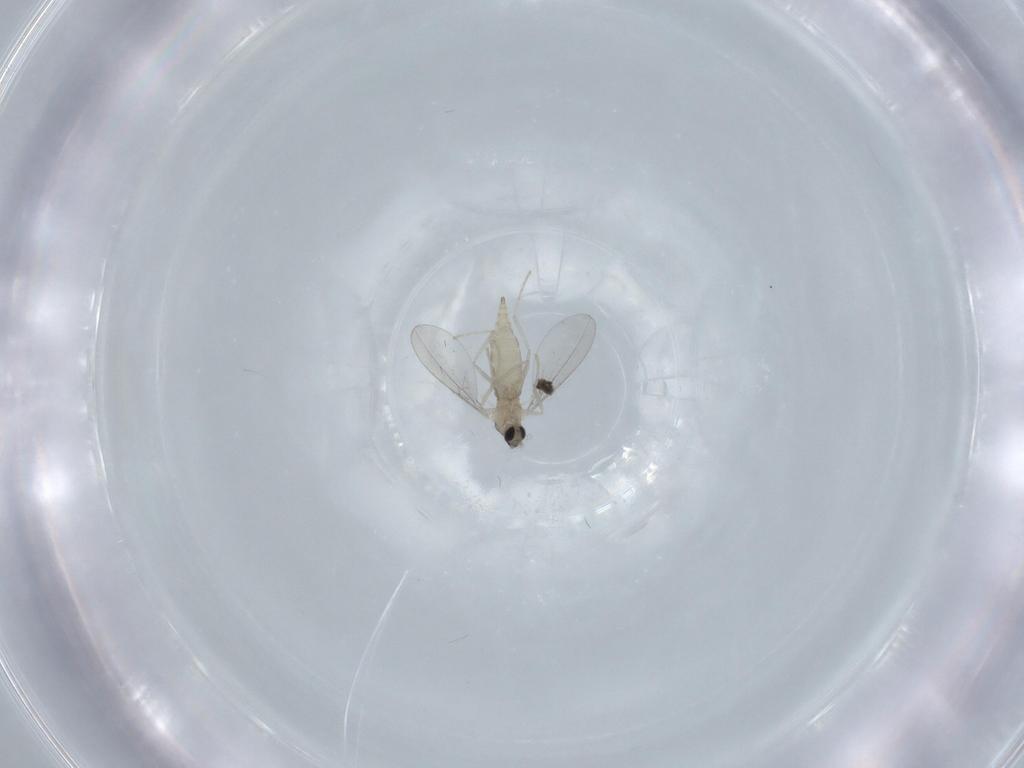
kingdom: Animalia
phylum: Arthropoda
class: Insecta
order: Diptera
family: Cecidomyiidae
